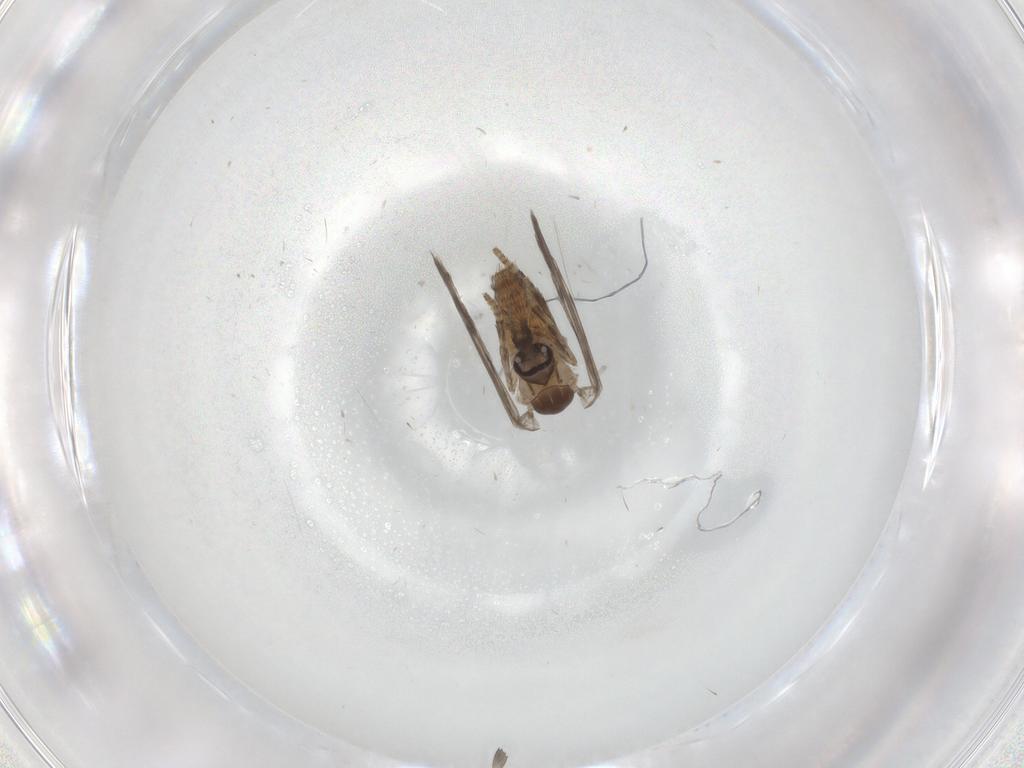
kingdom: Animalia
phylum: Arthropoda
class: Insecta
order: Diptera
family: Psychodidae
